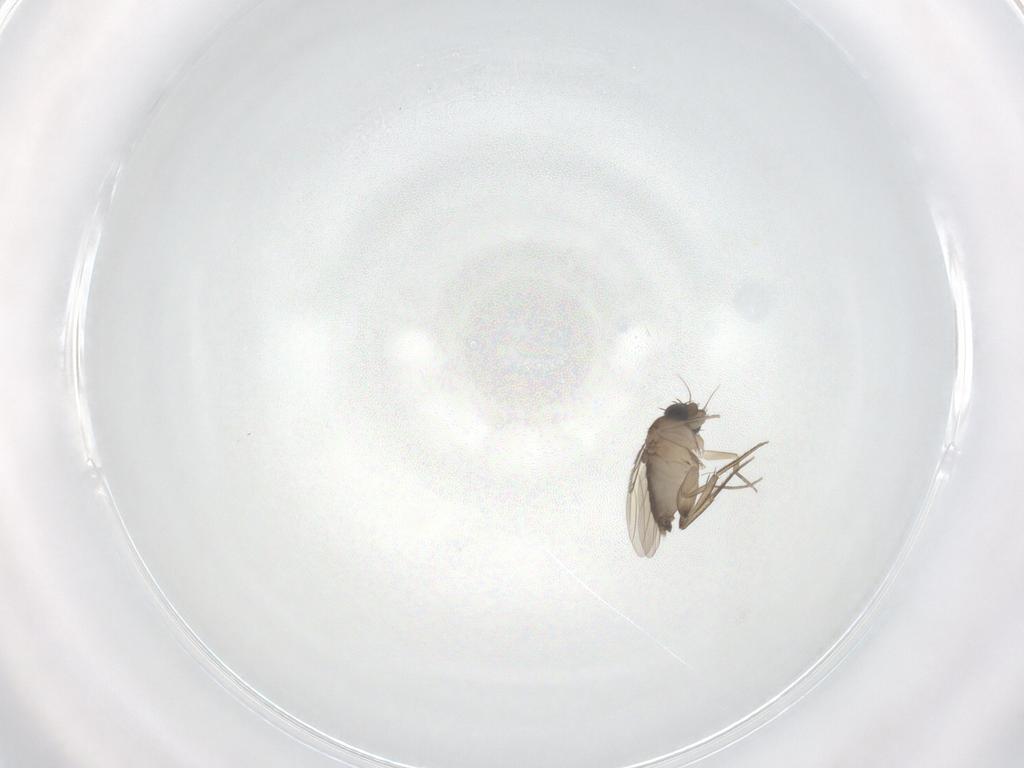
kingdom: Animalia
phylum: Arthropoda
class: Insecta
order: Diptera
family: Phoridae
